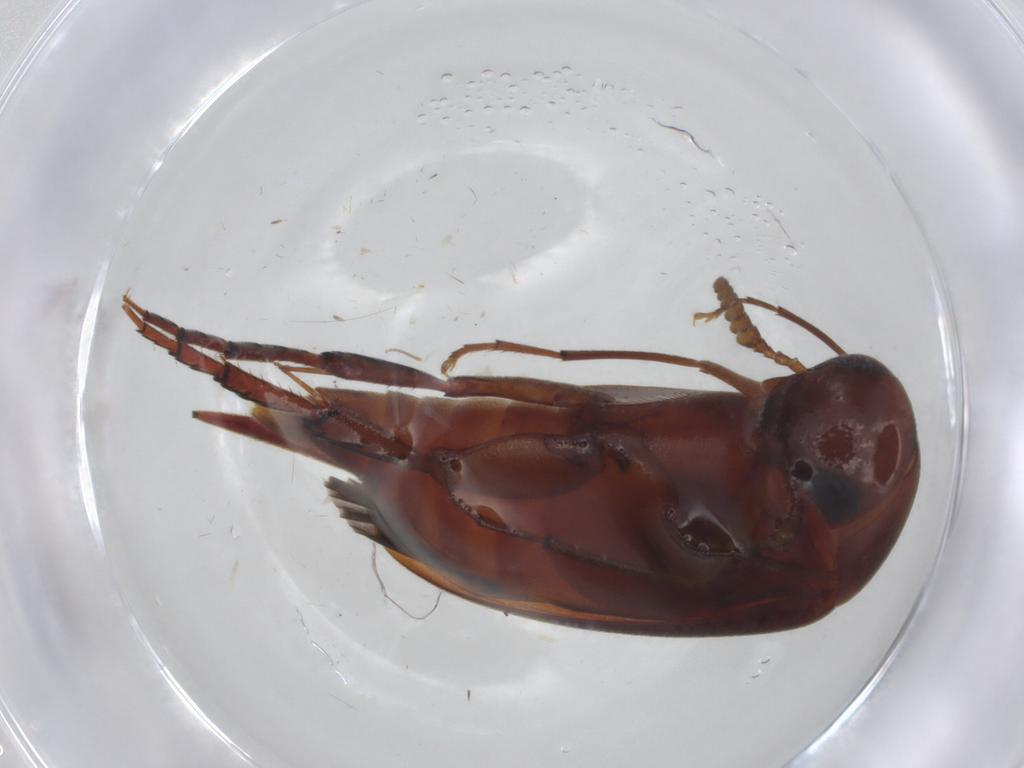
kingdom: Animalia
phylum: Arthropoda
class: Insecta
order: Coleoptera
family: Mordellidae
